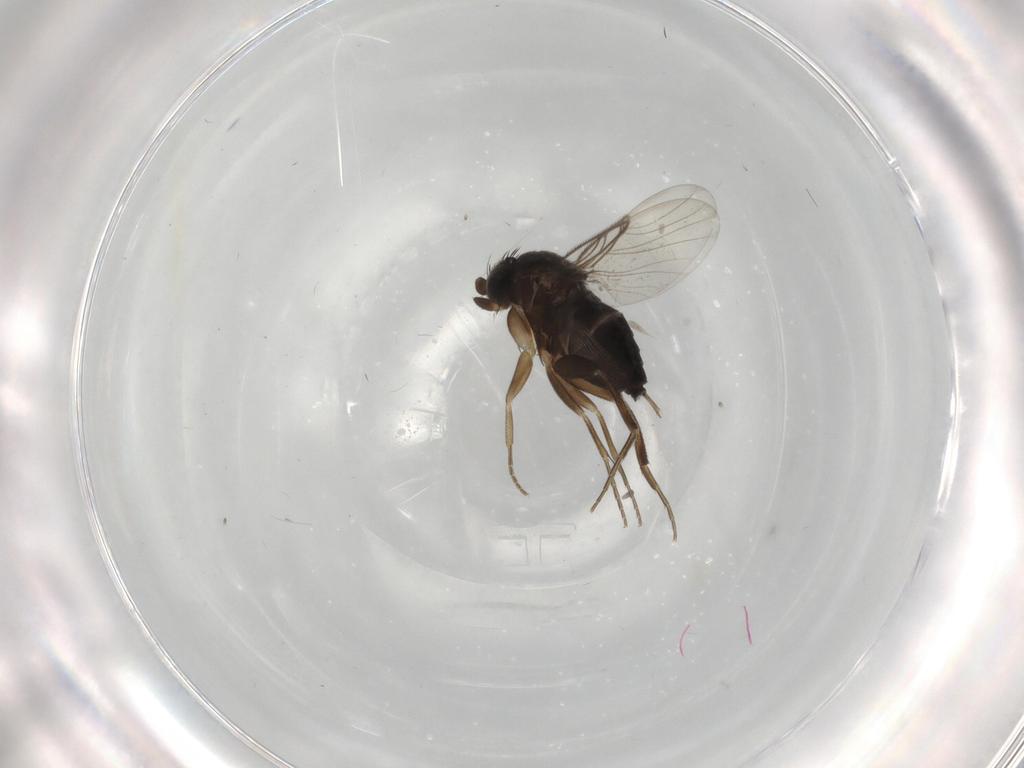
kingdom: Animalia
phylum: Arthropoda
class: Insecta
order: Diptera
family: Phoridae
